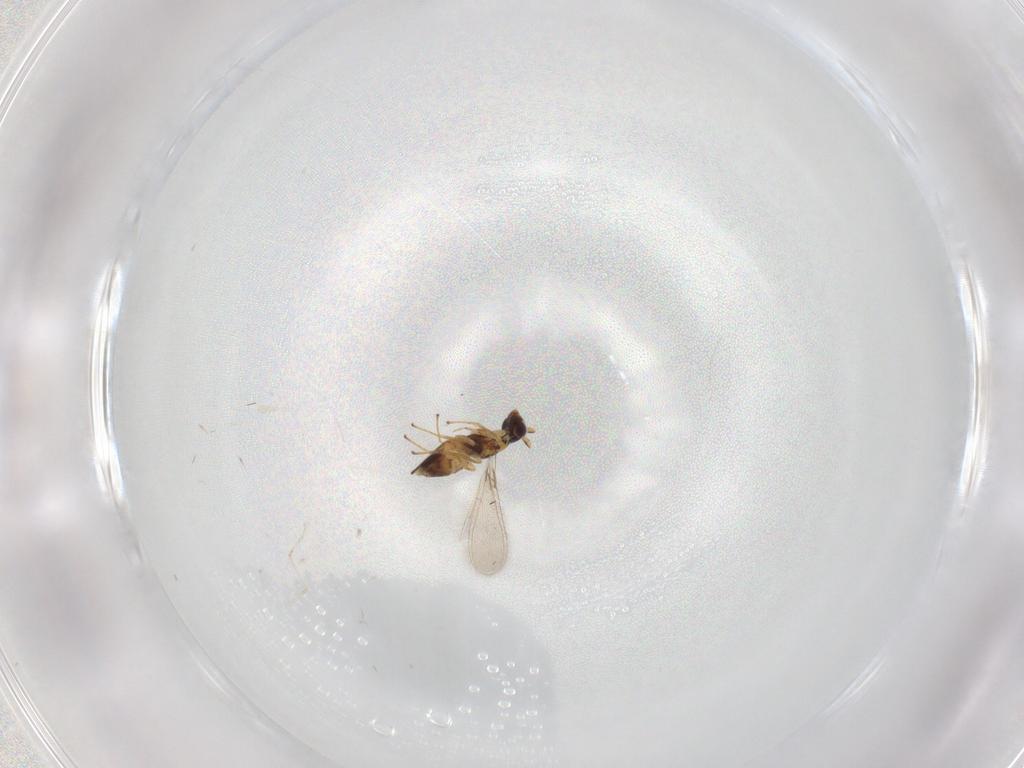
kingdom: Animalia
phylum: Arthropoda
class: Insecta
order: Hymenoptera
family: Mymaridae
